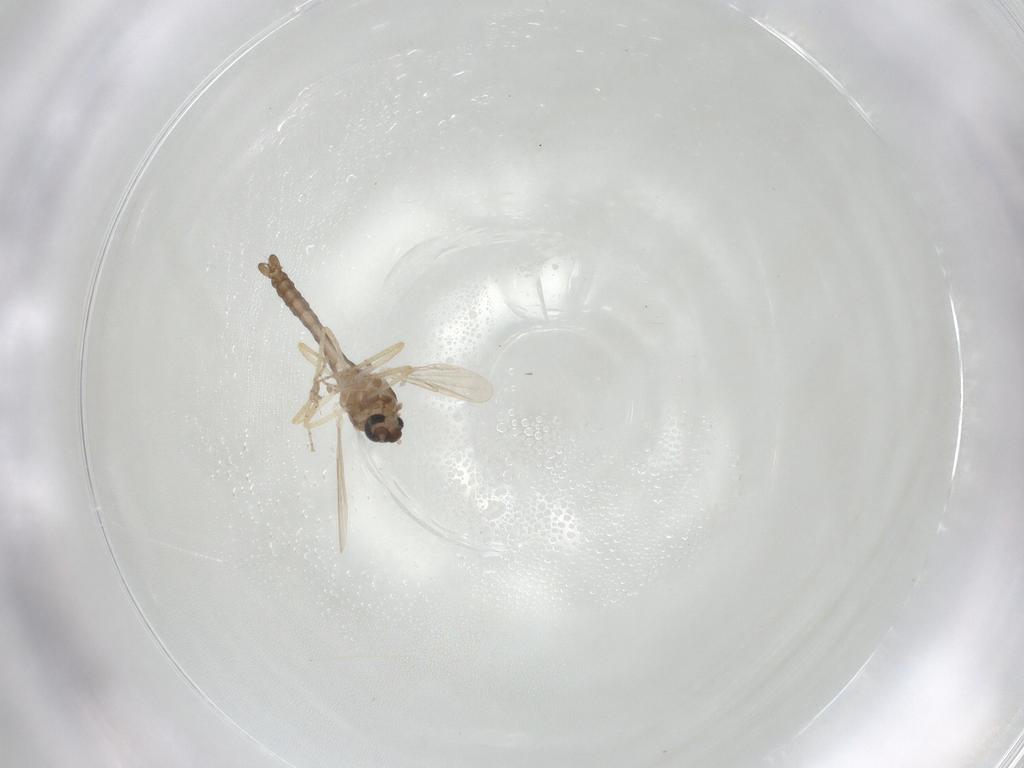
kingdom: Animalia
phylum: Arthropoda
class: Insecta
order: Diptera
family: Ceratopogonidae
